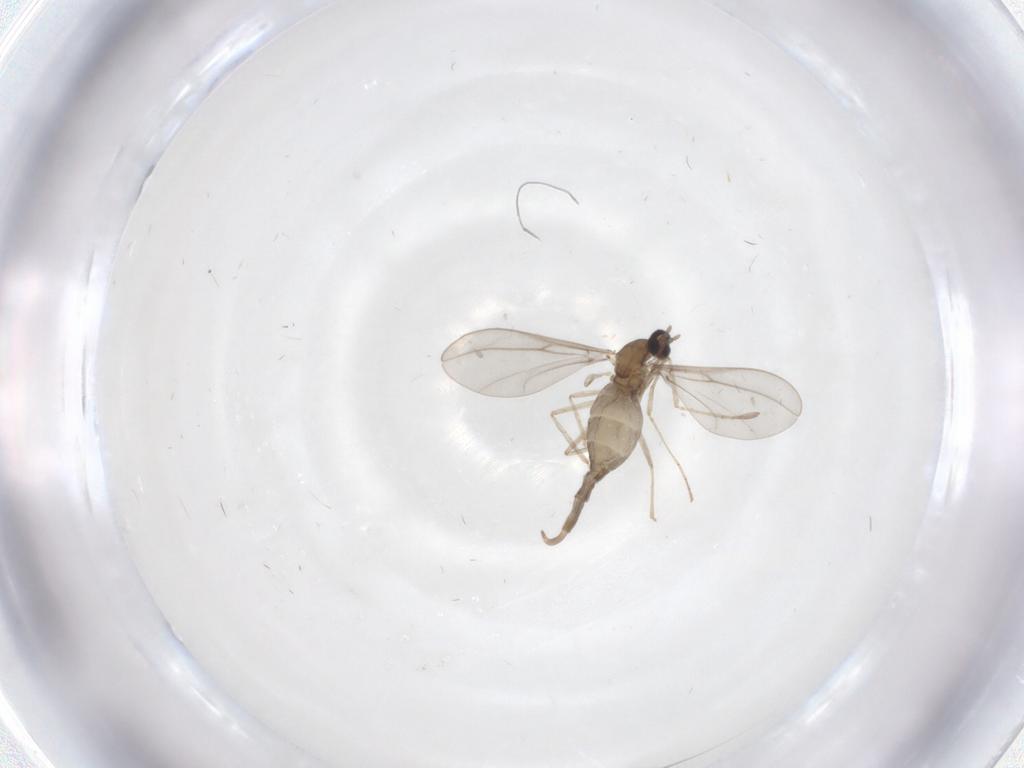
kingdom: Animalia
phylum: Arthropoda
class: Insecta
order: Diptera
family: Cecidomyiidae
